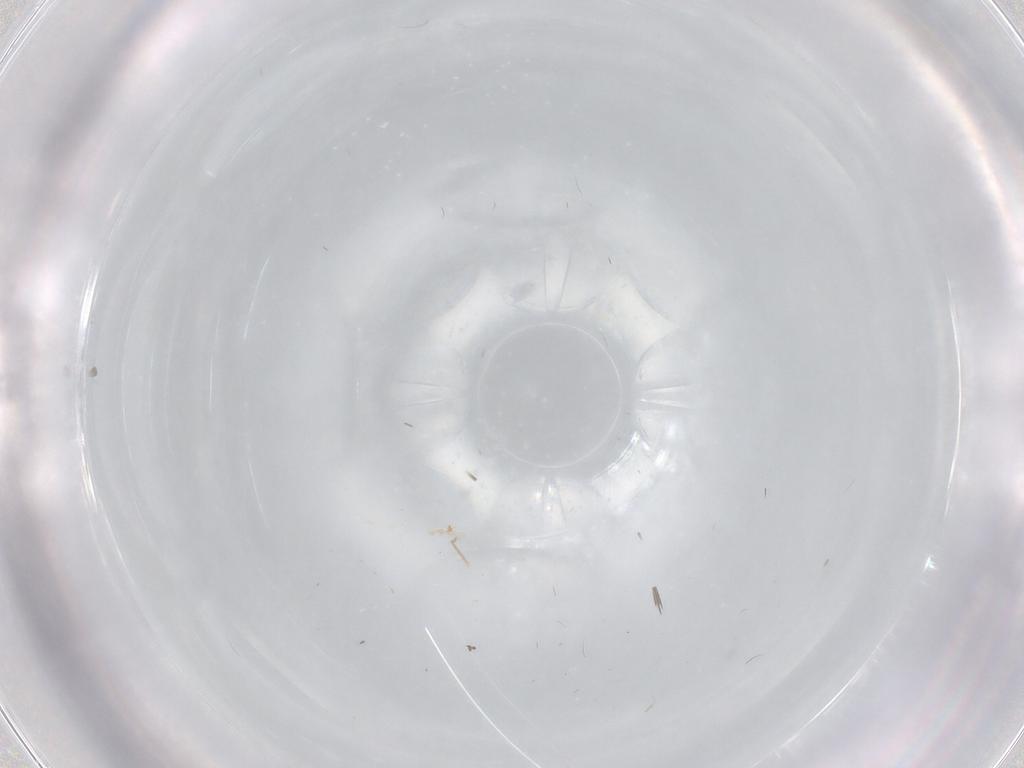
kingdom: Animalia
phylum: Arthropoda
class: Insecta
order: Diptera
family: Cecidomyiidae
